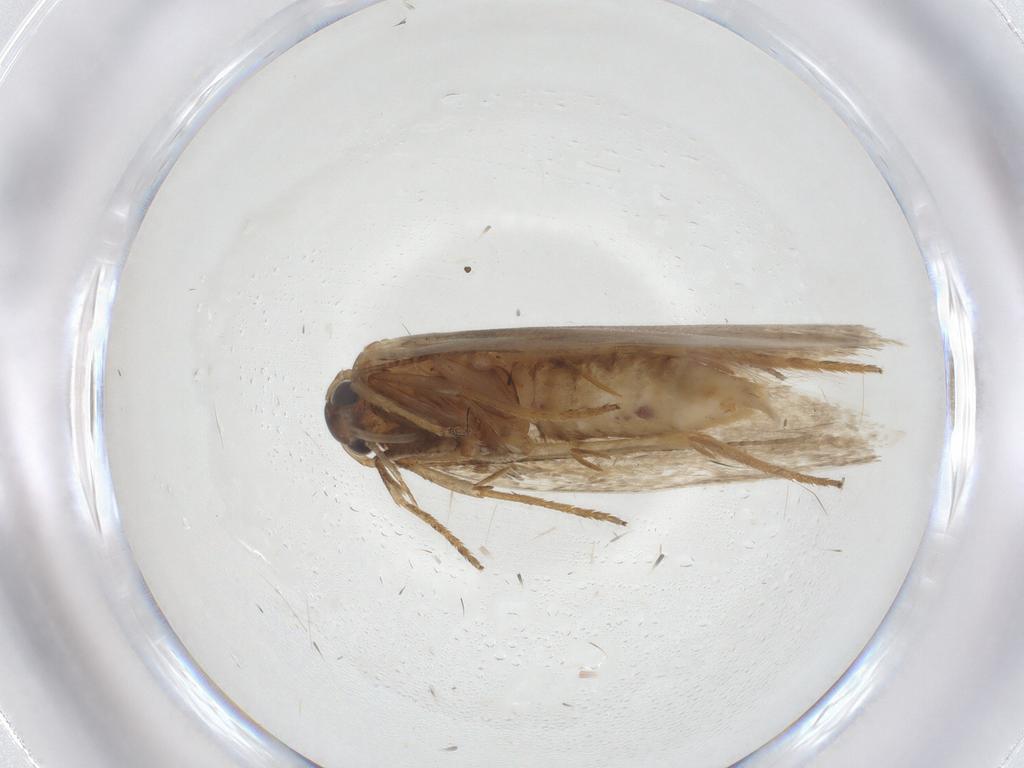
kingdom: Animalia
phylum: Arthropoda
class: Insecta
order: Lepidoptera
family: Erebidae
